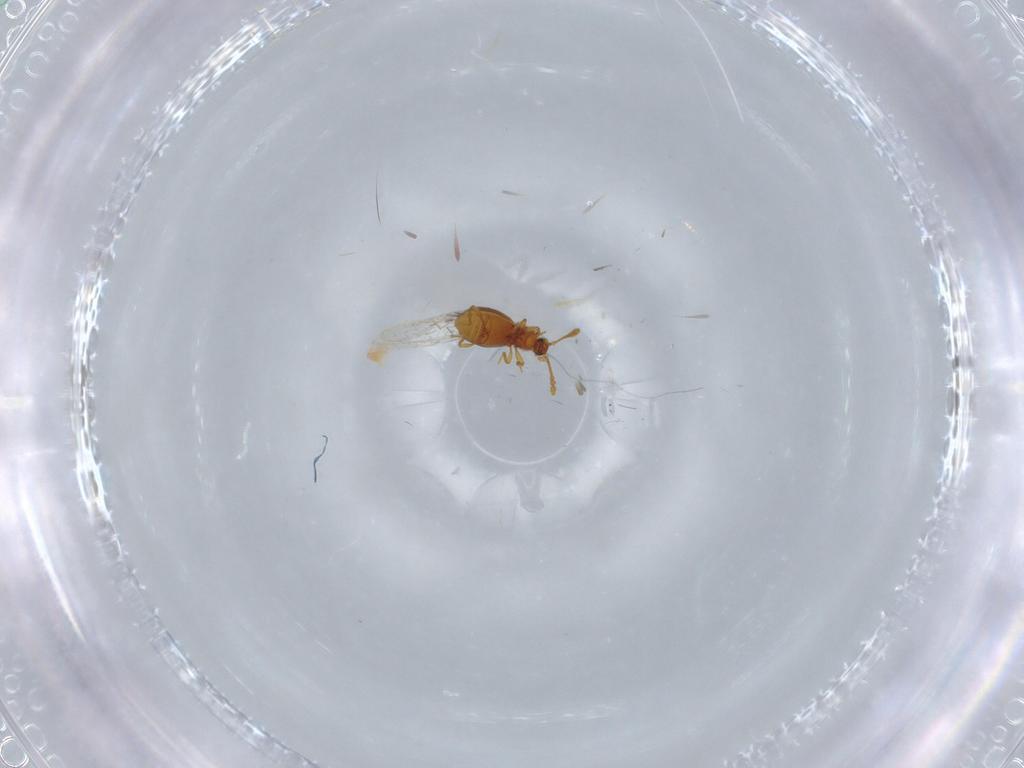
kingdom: Animalia
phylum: Arthropoda
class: Insecta
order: Coleoptera
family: Staphylinidae
